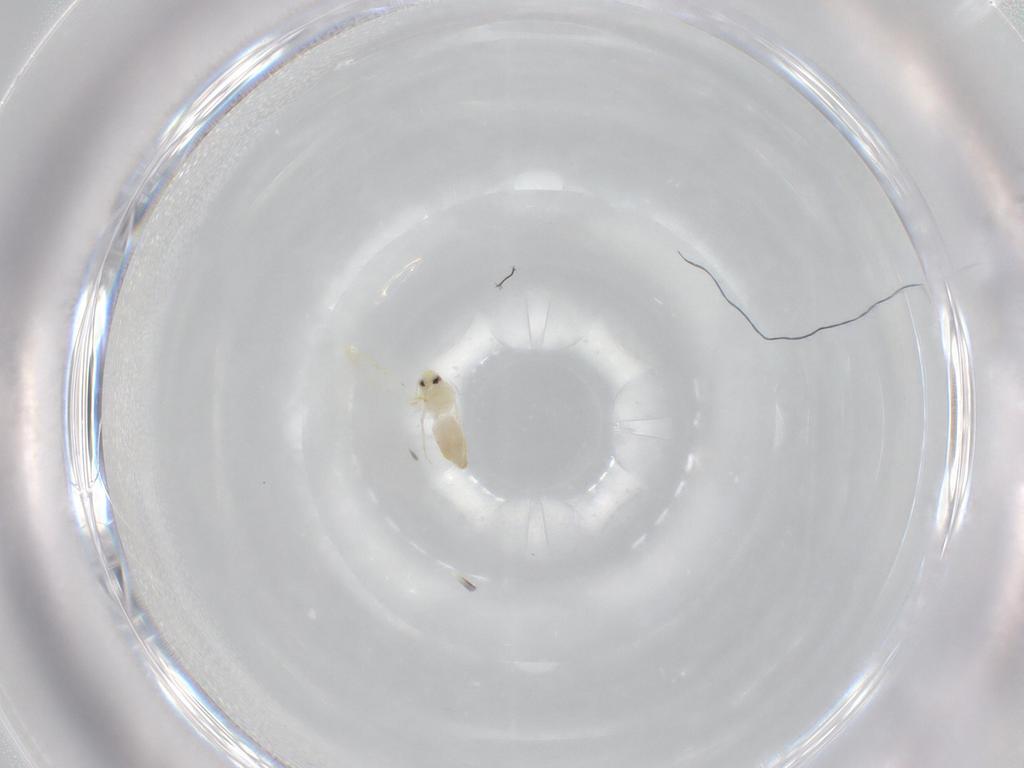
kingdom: Animalia
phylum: Arthropoda
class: Insecta
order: Hemiptera
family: Aleyrodidae
